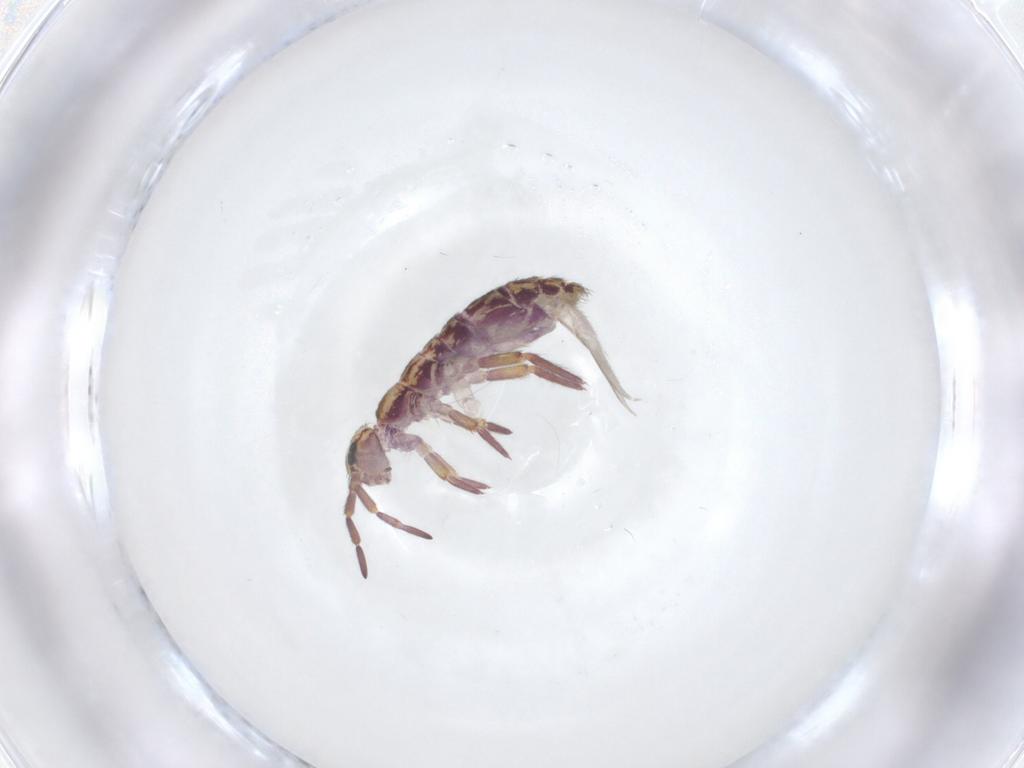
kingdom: Animalia
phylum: Arthropoda
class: Collembola
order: Entomobryomorpha
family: Isotomidae
